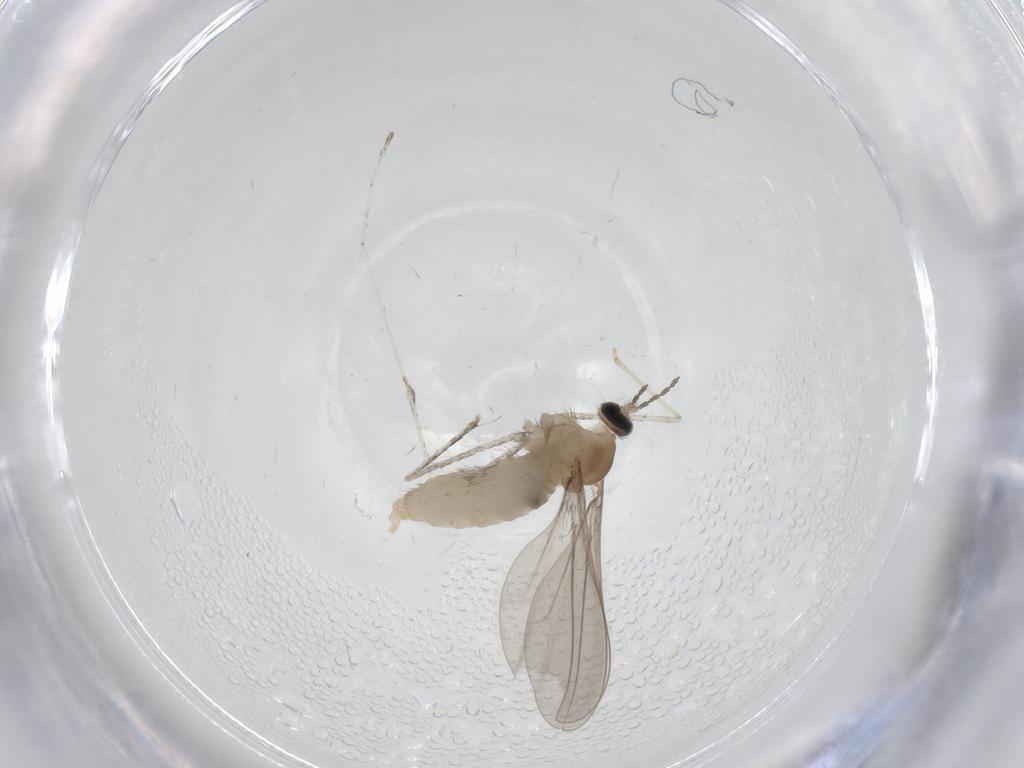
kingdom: Animalia
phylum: Arthropoda
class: Insecta
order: Diptera
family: Cecidomyiidae
